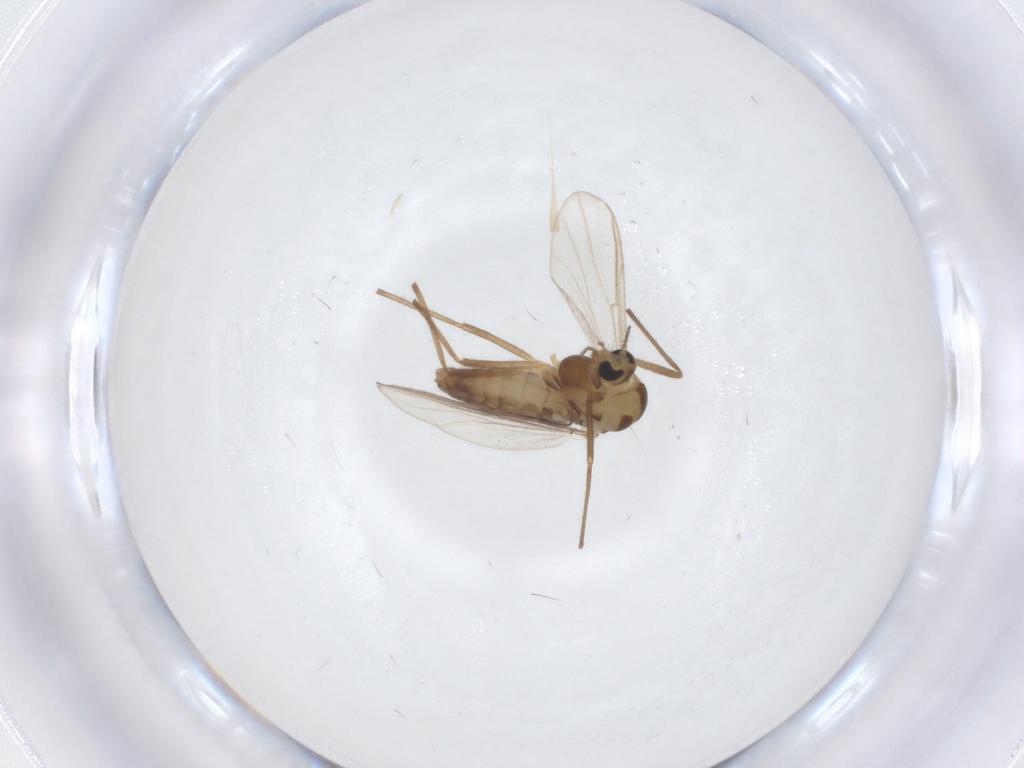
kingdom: Animalia
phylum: Arthropoda
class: Insecta
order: Diptera
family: Chironomidae
